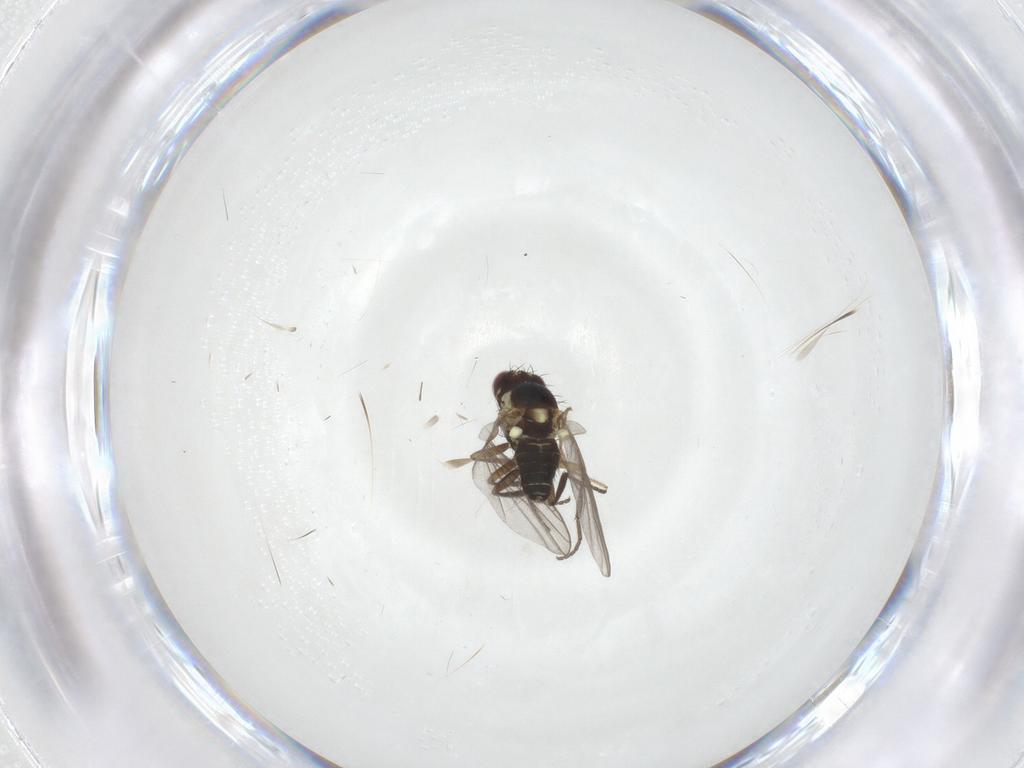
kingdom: Animalia
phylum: Arthropoda
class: Insecta
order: Diptera
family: Chironomidae
